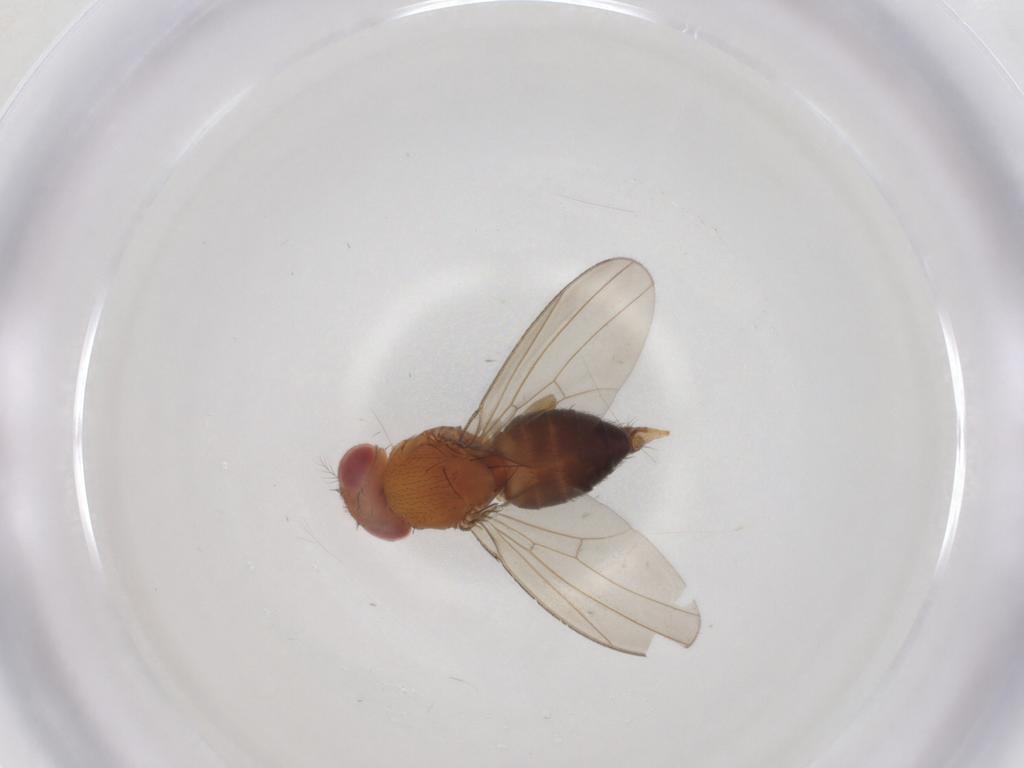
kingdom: Animalia
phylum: Arthropoda
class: Insecta
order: Diptera
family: Drosophilidae
